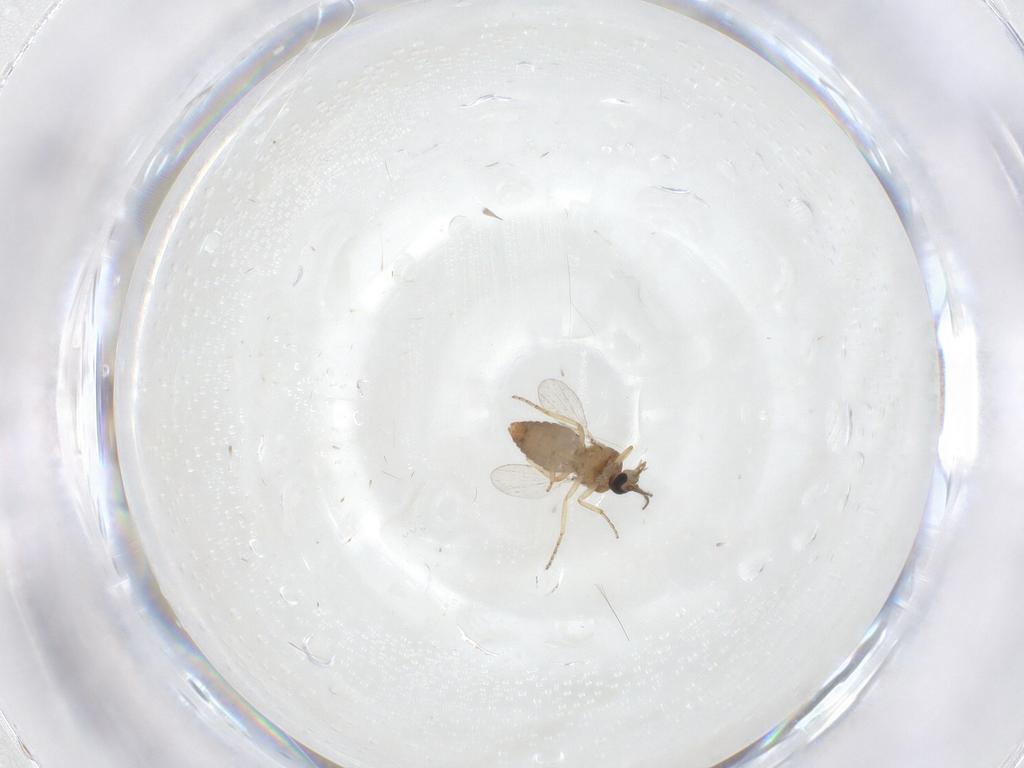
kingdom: Animalia
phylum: Arthropoda
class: Insecta
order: Diptera
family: Ceratopogonidae
